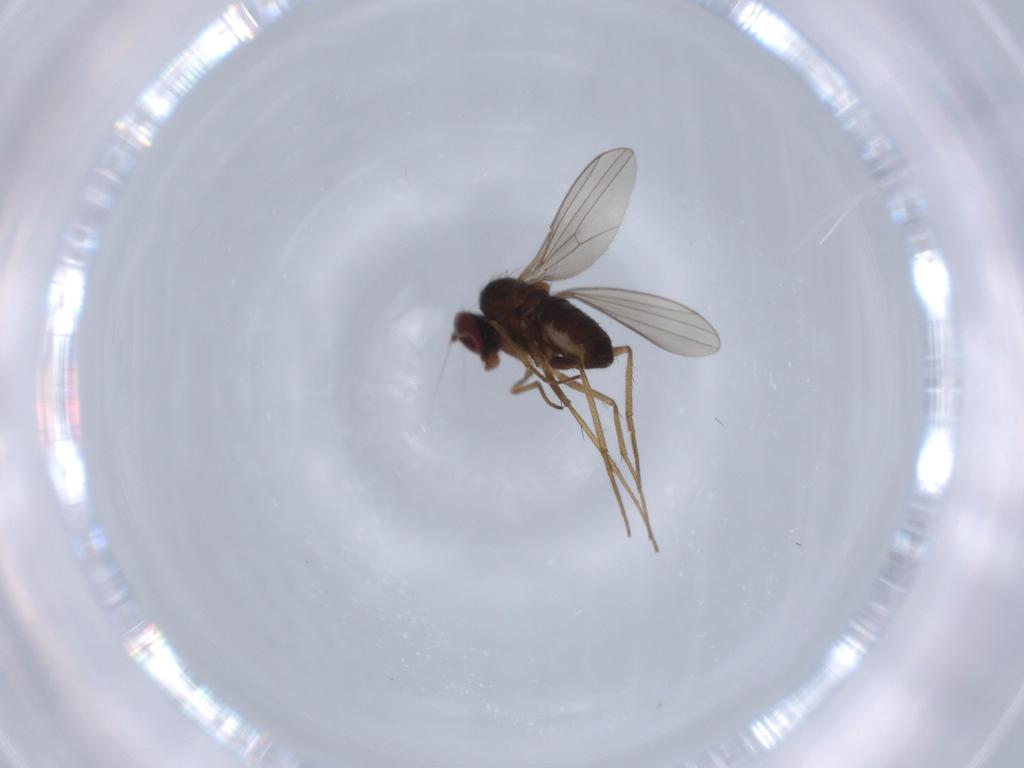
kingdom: Animalia
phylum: Arthropoda
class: Insecta
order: Diptera
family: Dolichopodidae
